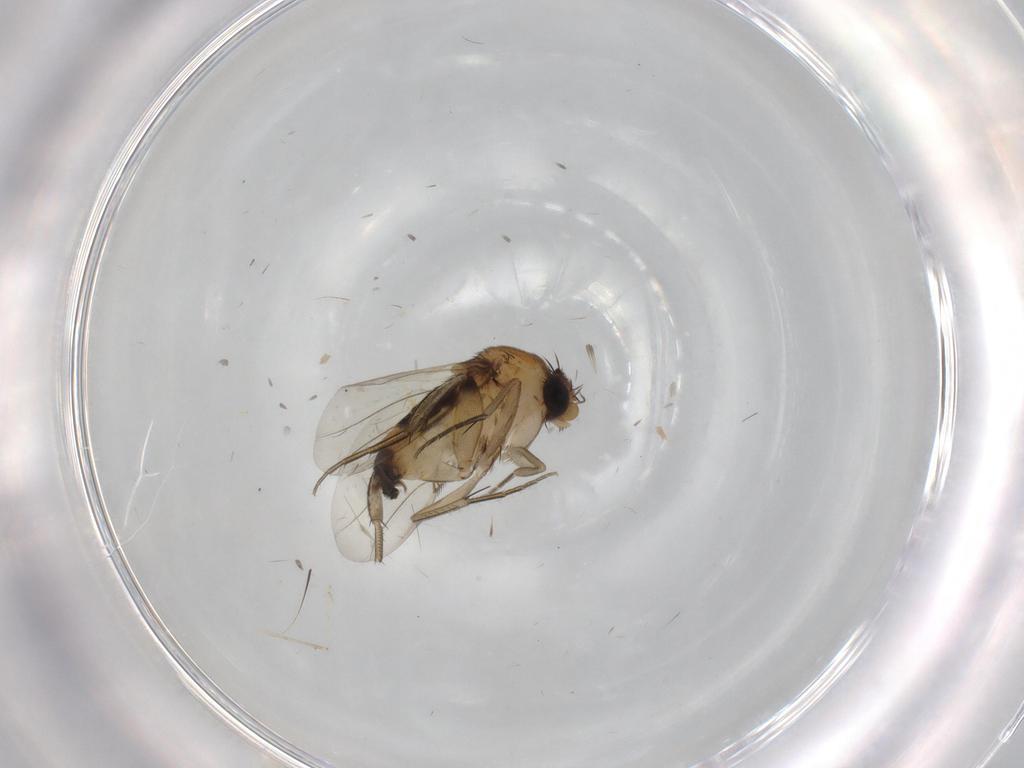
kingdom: Animalia
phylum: Arthropoda
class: Insecta
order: Diptera
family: Phoridae
